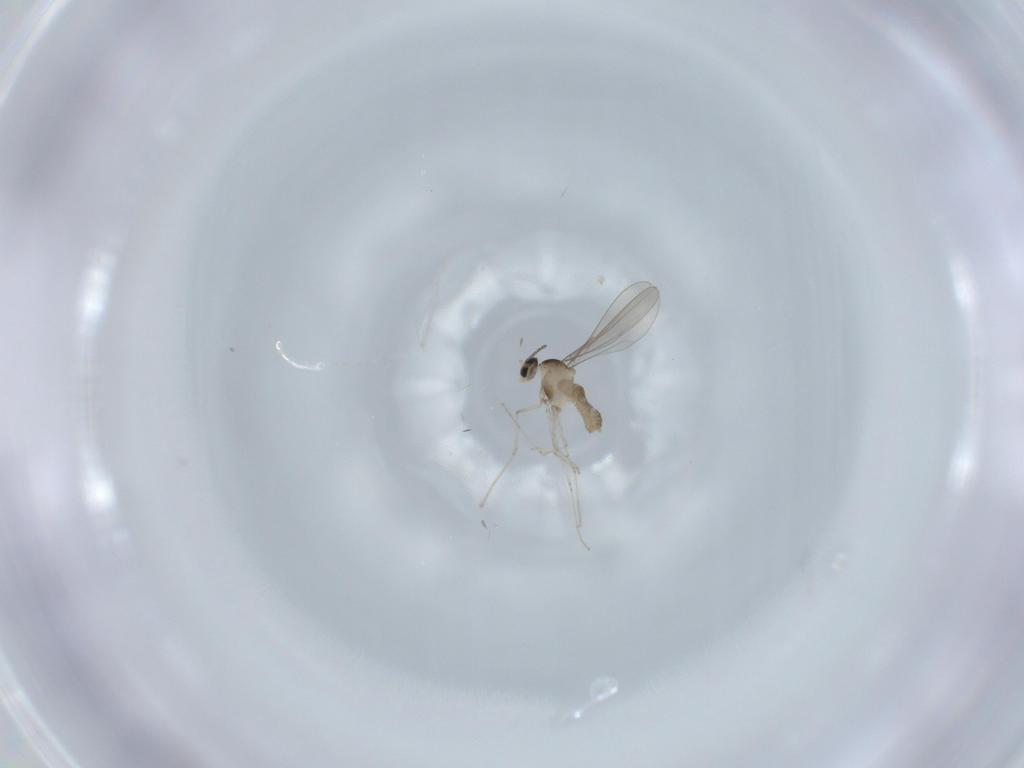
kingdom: Animalia
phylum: Arthropoda
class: Insecta
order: Diptera
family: Cecidomyiidae
